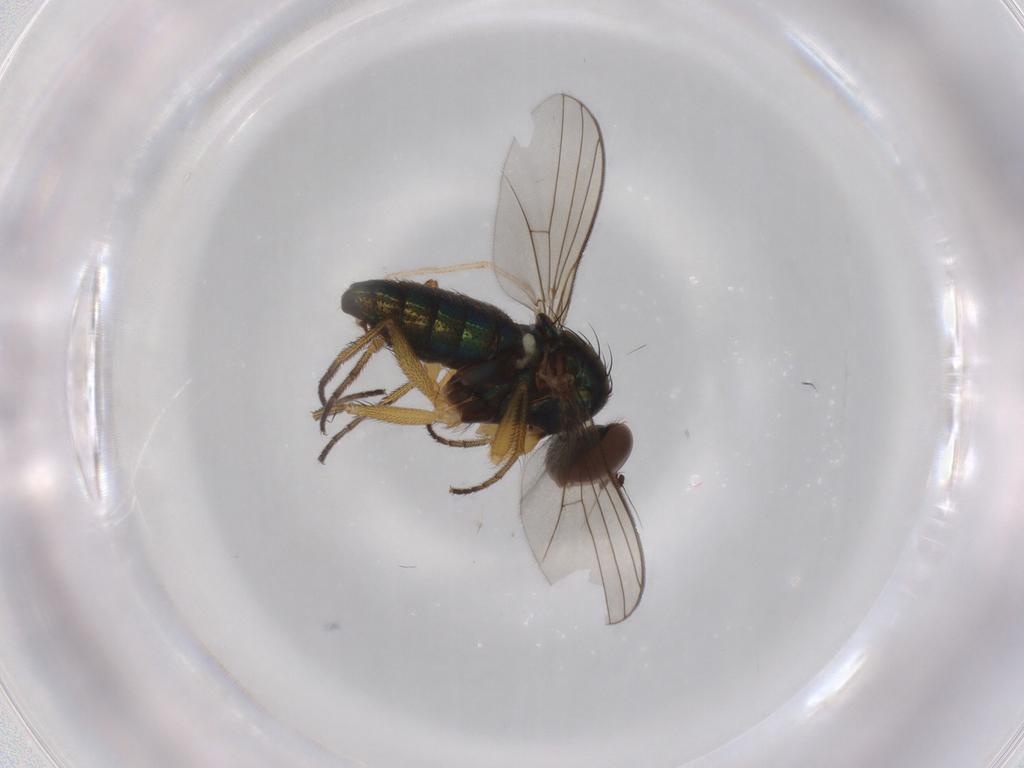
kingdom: Animalia
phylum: Arthropoda
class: Insecta
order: Diptera
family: Dolichopodidae
